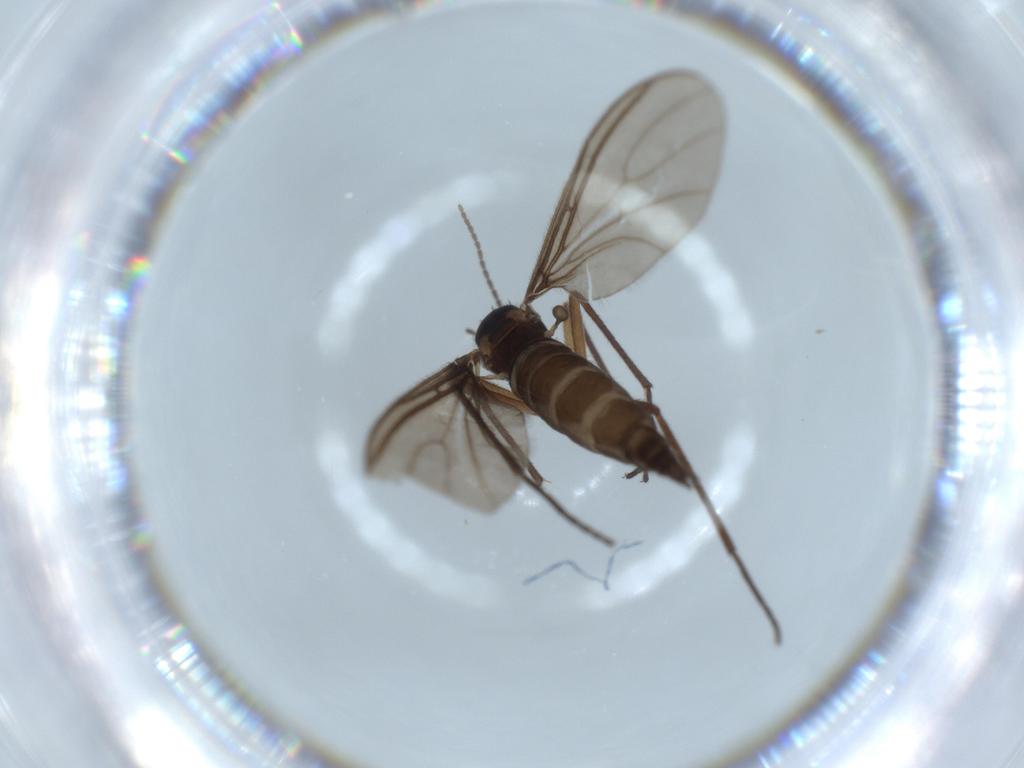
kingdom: Animalia
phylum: Arthropoda
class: Insecta
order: Diptera
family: Sciaridae
